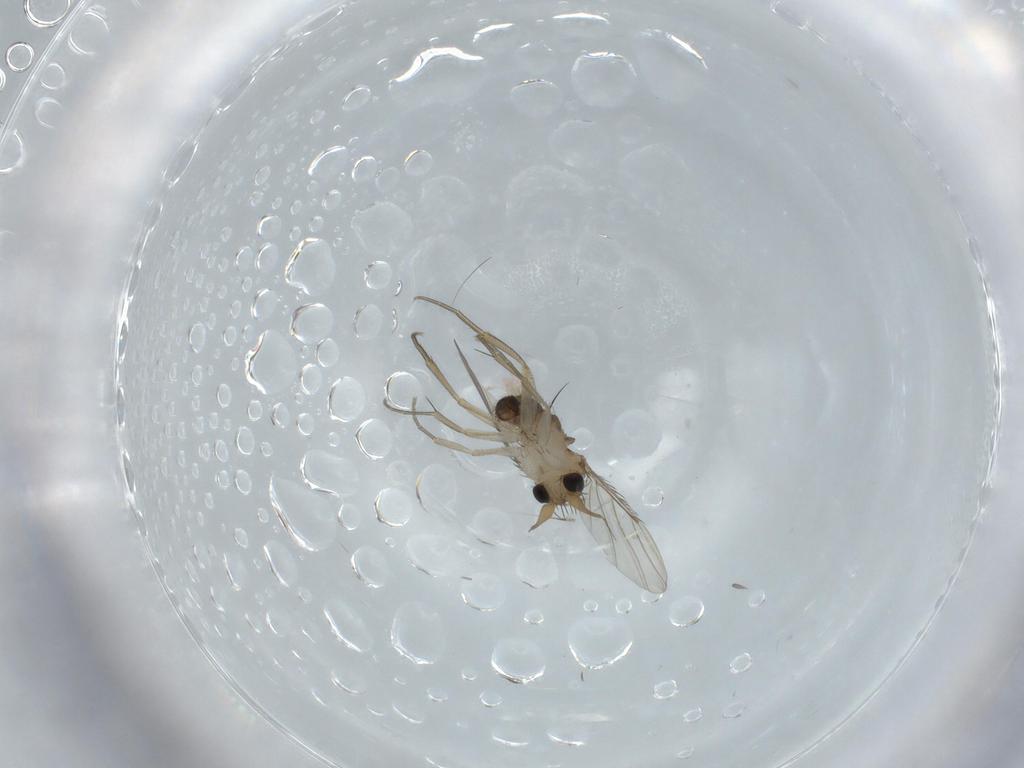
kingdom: Animalia
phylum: Arthropoda
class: Insecta
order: Diptera
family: Phoridae
